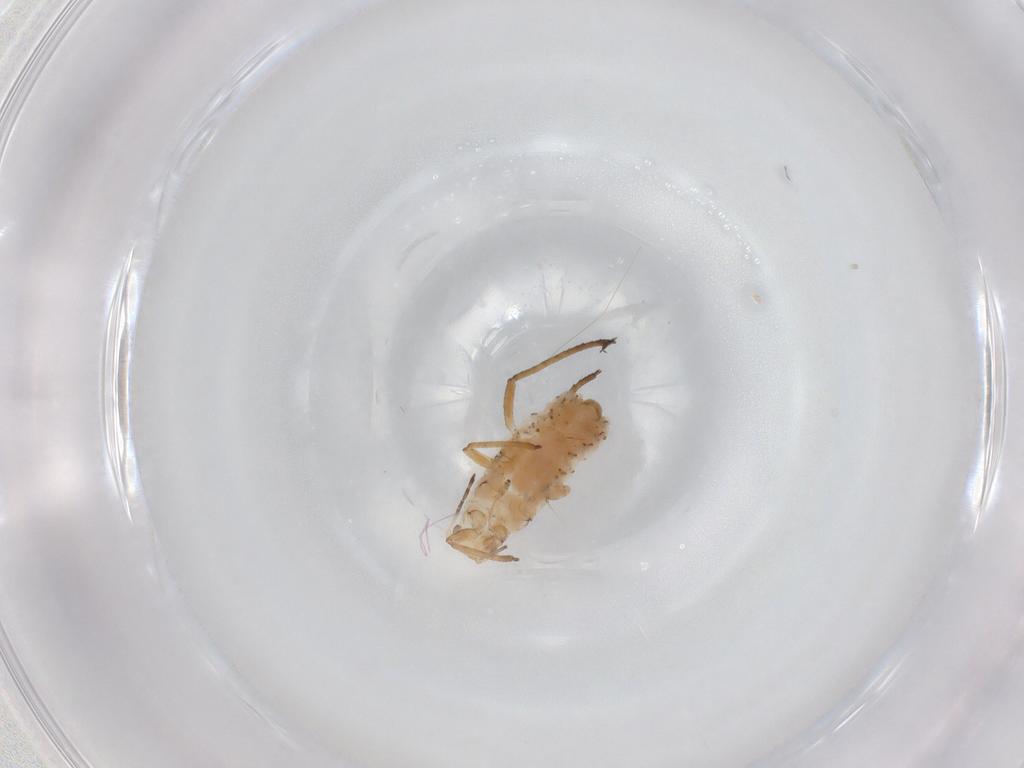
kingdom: Animalia
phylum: Arthropoda
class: Insecta
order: Hemiptera
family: Aphididae
